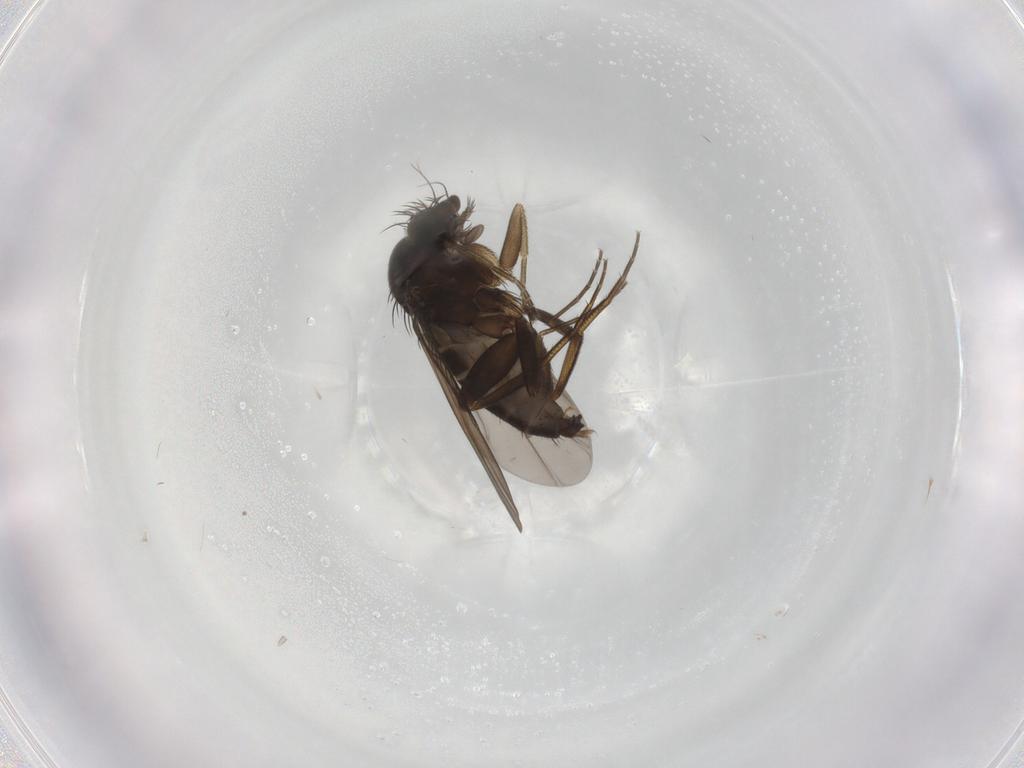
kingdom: Animalia
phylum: Arthropoda
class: Insecta
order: Diptera
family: Phoridae
